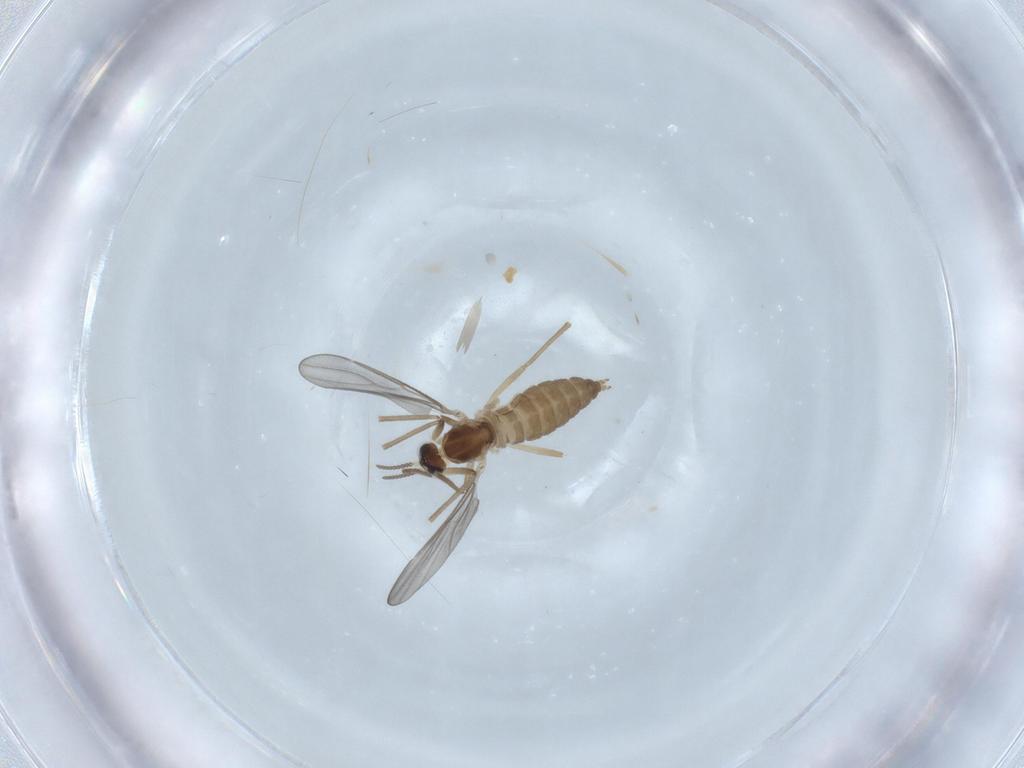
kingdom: Animalia
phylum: Arthropoda
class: Insecta
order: Diptera
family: Cecidomyiidae
